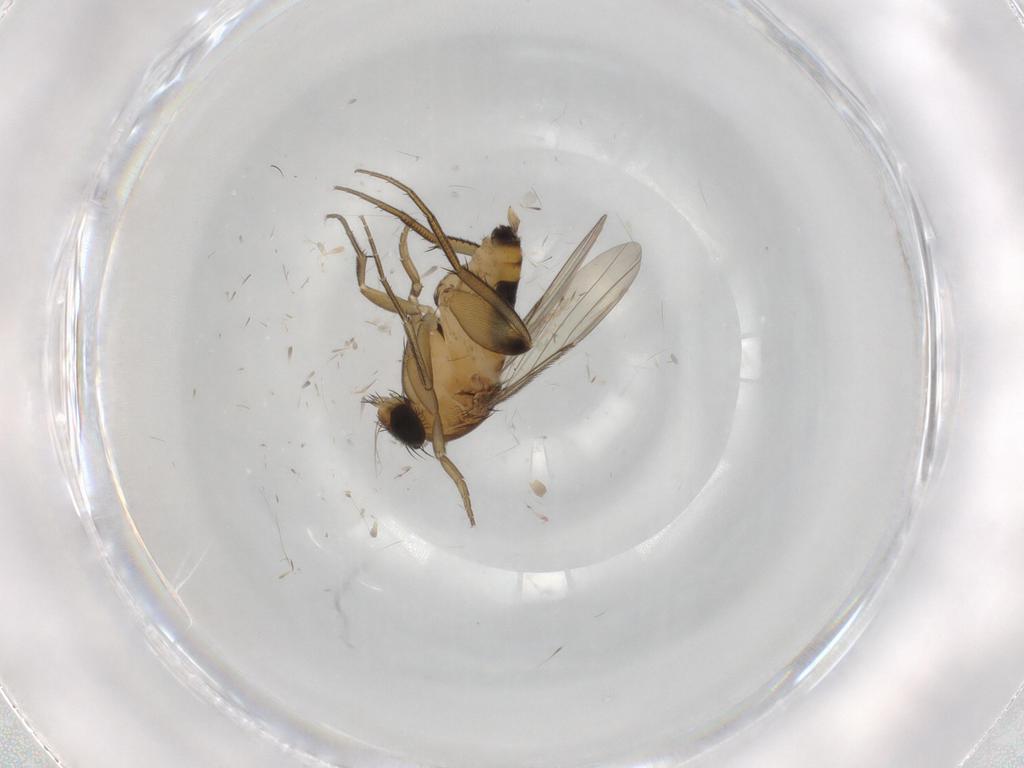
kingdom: Animalia
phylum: Arthropoda
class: Insecta
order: Diptera
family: Phoridae
